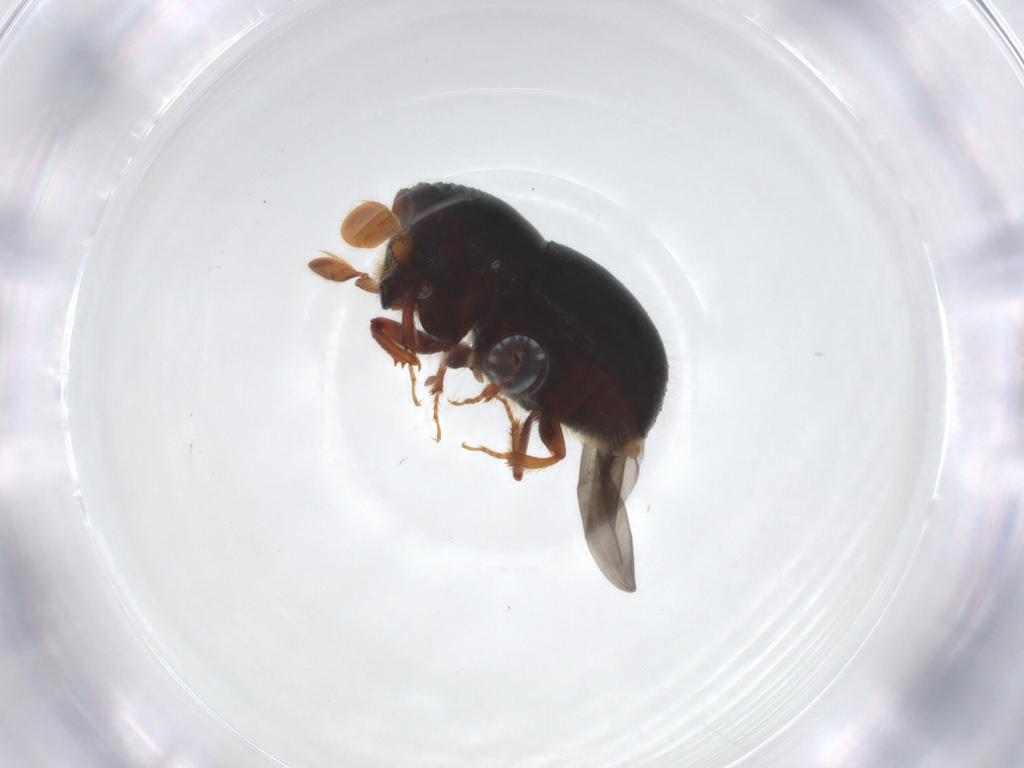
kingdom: Animalia
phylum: Arthropoda
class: Insecta
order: Coleoptera
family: Curculionidae
